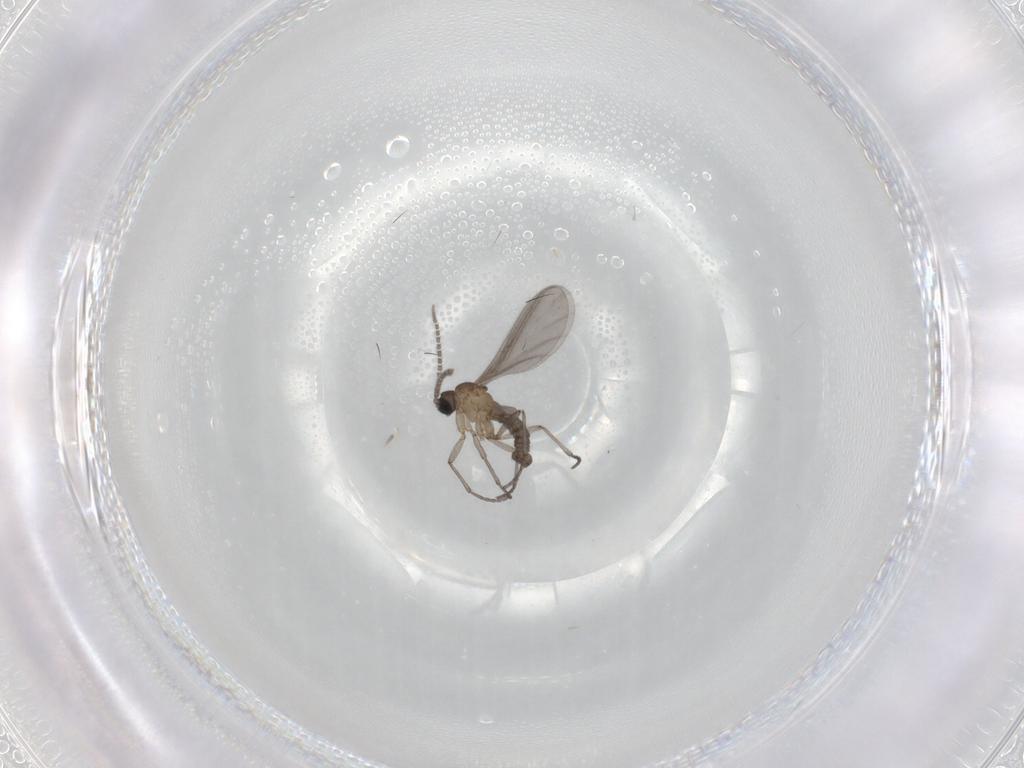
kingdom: Animalia
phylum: Arthropoda
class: Insecta
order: Diptera
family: Sciaridae
